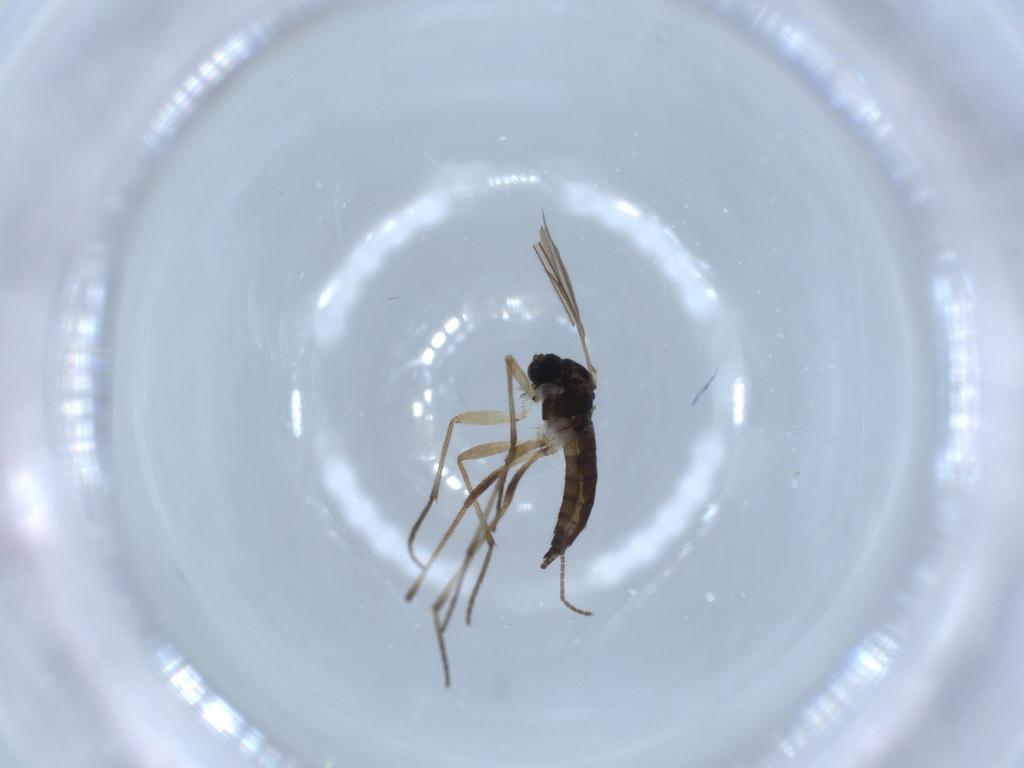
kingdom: Animalia
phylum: Arthropoda
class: Insecta
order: Diptera
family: Sciaridae
